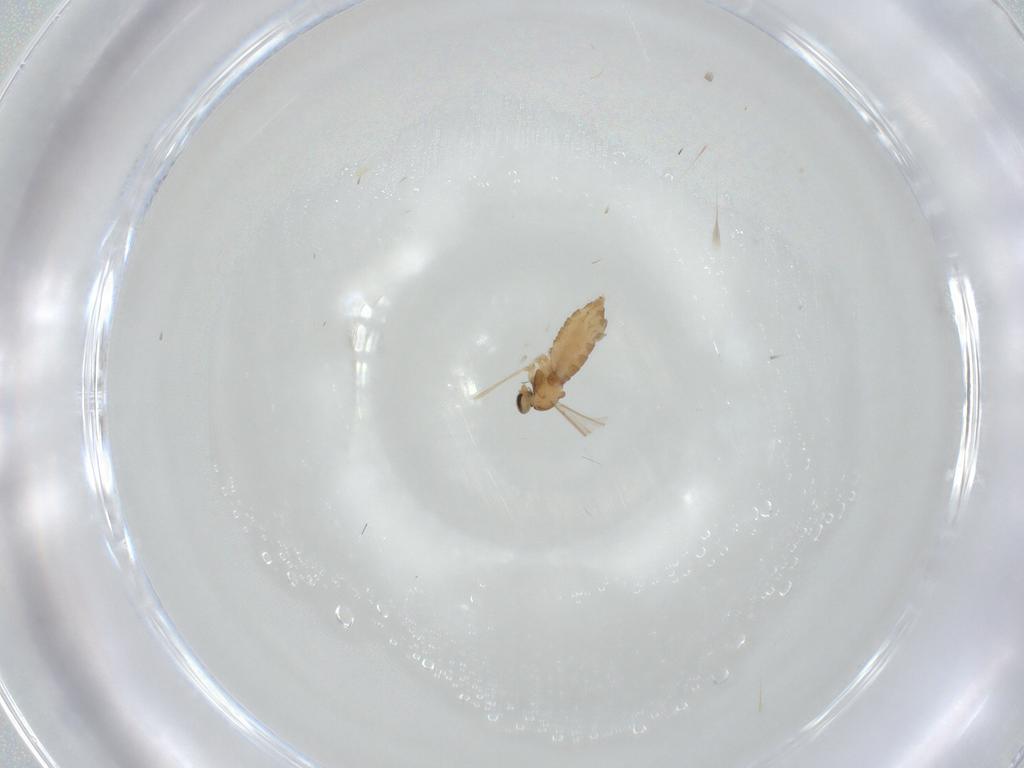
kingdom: Animalia
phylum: Arthropoda
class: Insecta
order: Diptera
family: Cecidomyiidae
